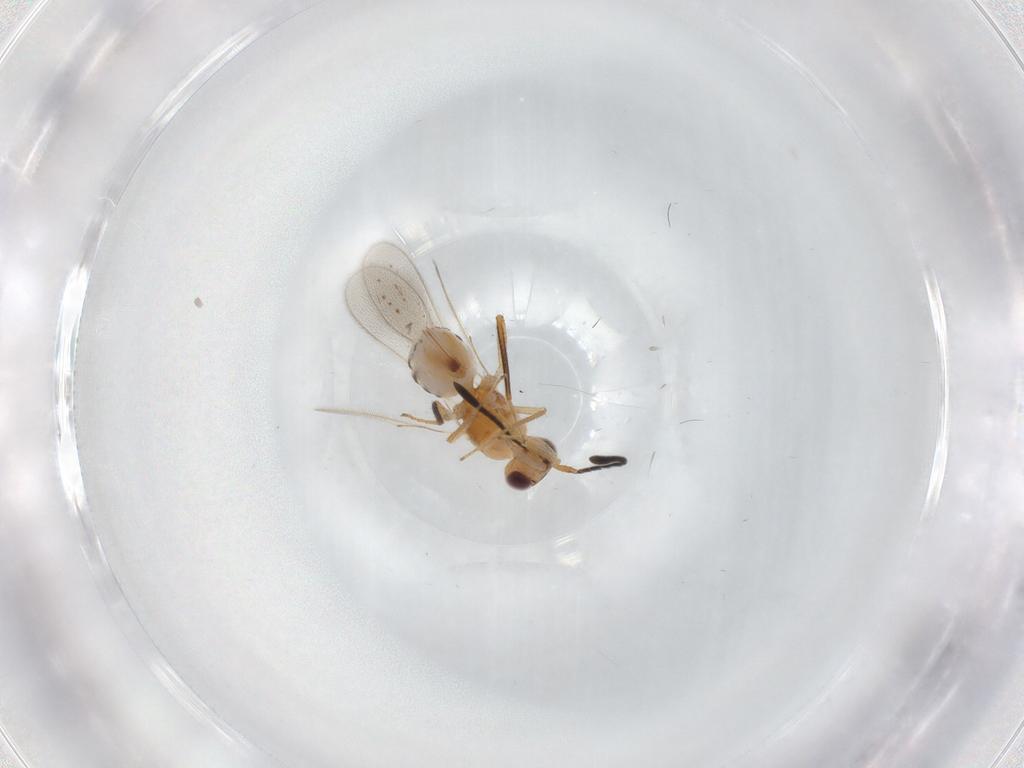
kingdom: Animalia
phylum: Arthropoda
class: Insecta
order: Hymenoptera
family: Mymaridae
